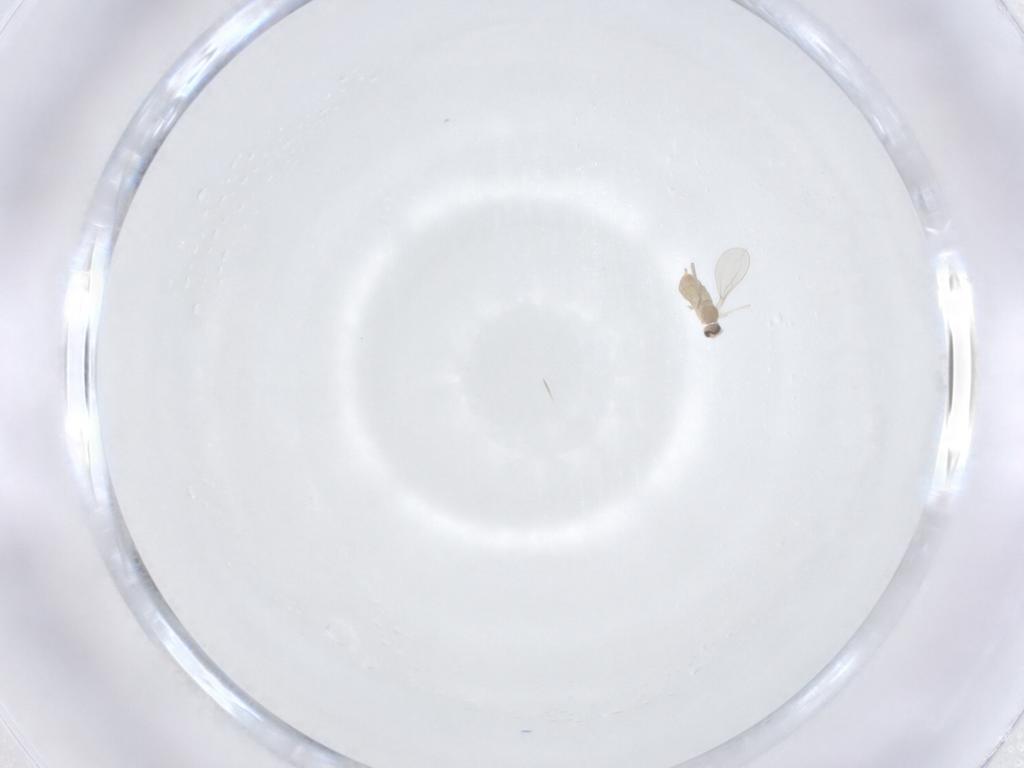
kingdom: Animalia
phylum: Arthropoda
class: Insecta
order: Diptera
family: Cecidomyiidae
